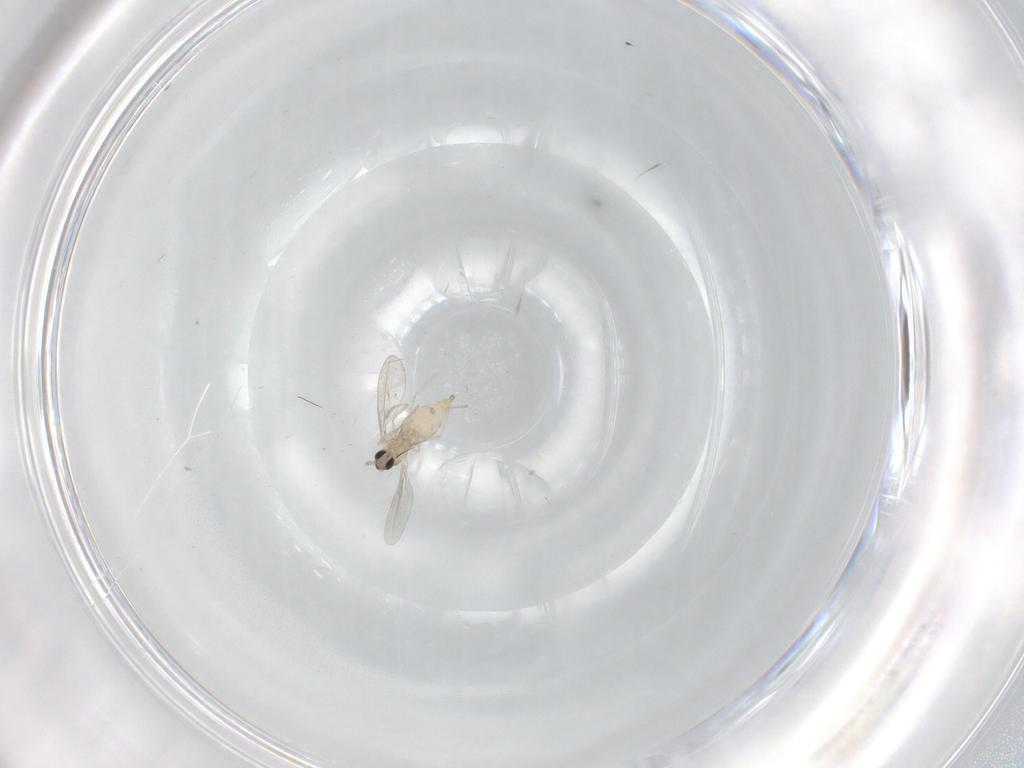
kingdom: Animalia
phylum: Arthropoda
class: Insecta
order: Diptera
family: Cecidomyiidae
